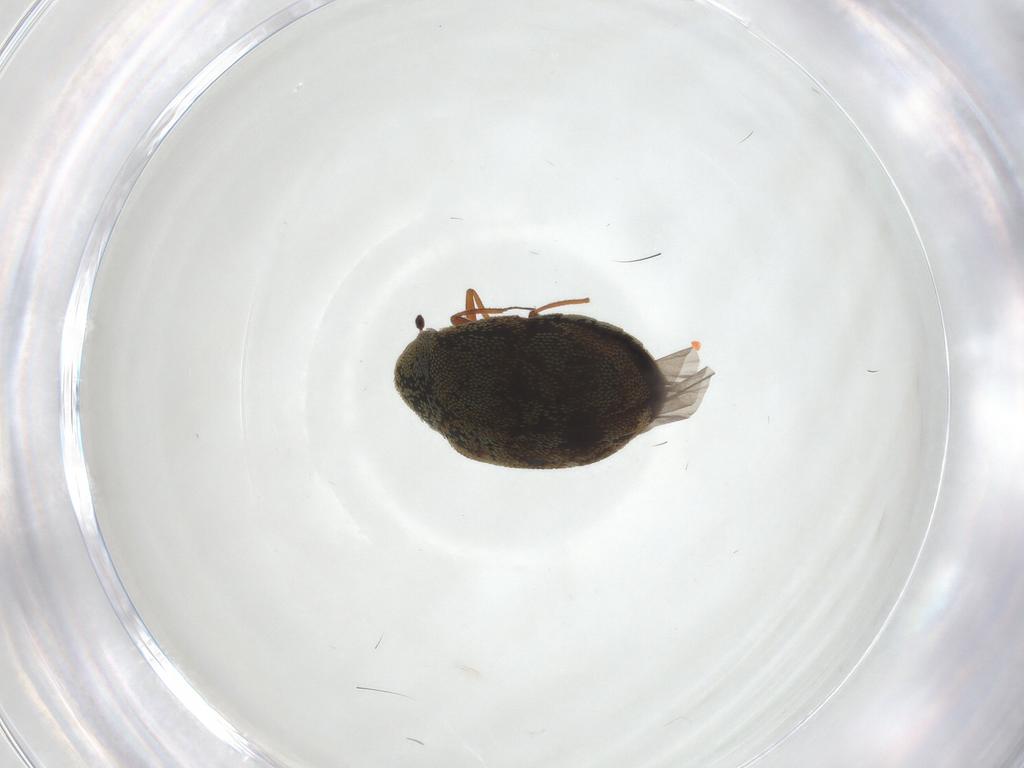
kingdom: Animalia
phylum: Arthropoda
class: Insecta
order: Coleoptera
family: Dermestidae
